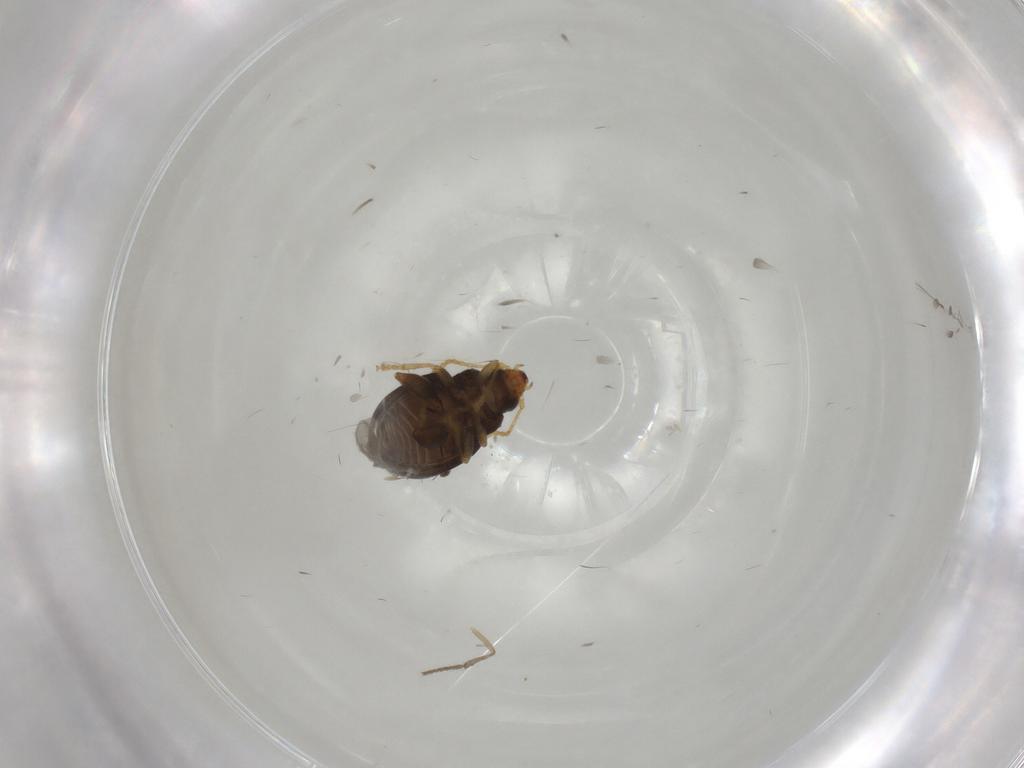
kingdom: Animalia
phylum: Arthropoda
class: Insecta
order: Coleoptera
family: Chrysomelidae
